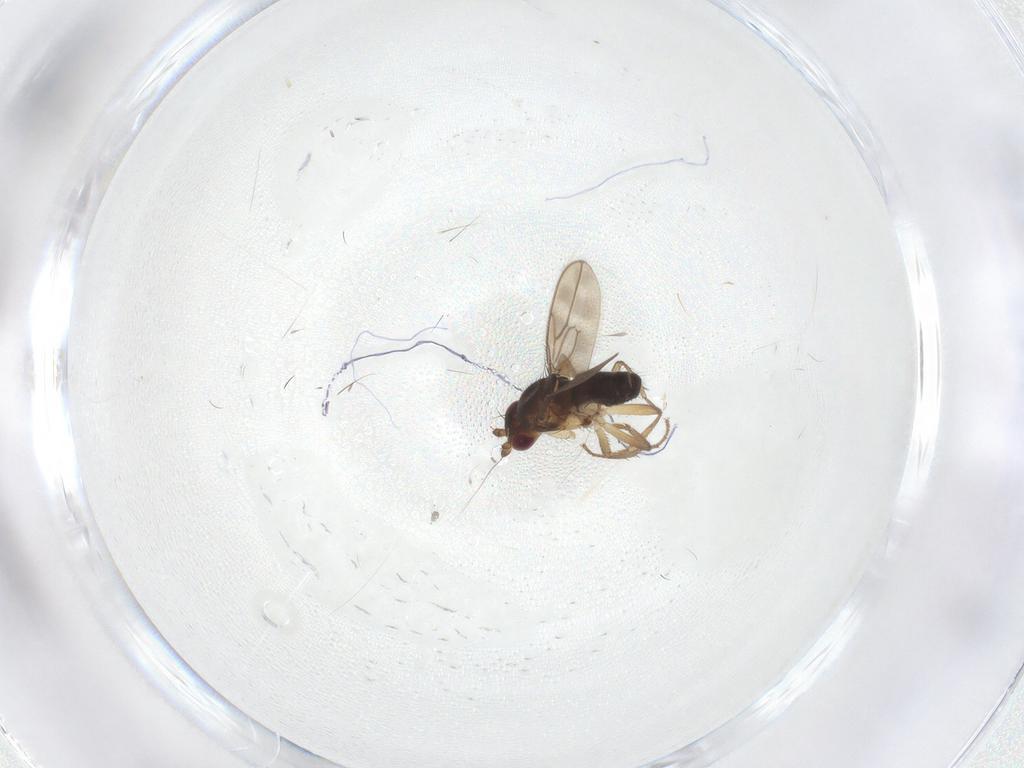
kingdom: Animalia
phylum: Arthropoda
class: Insecta
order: Diptera
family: Sphaeroceridae
